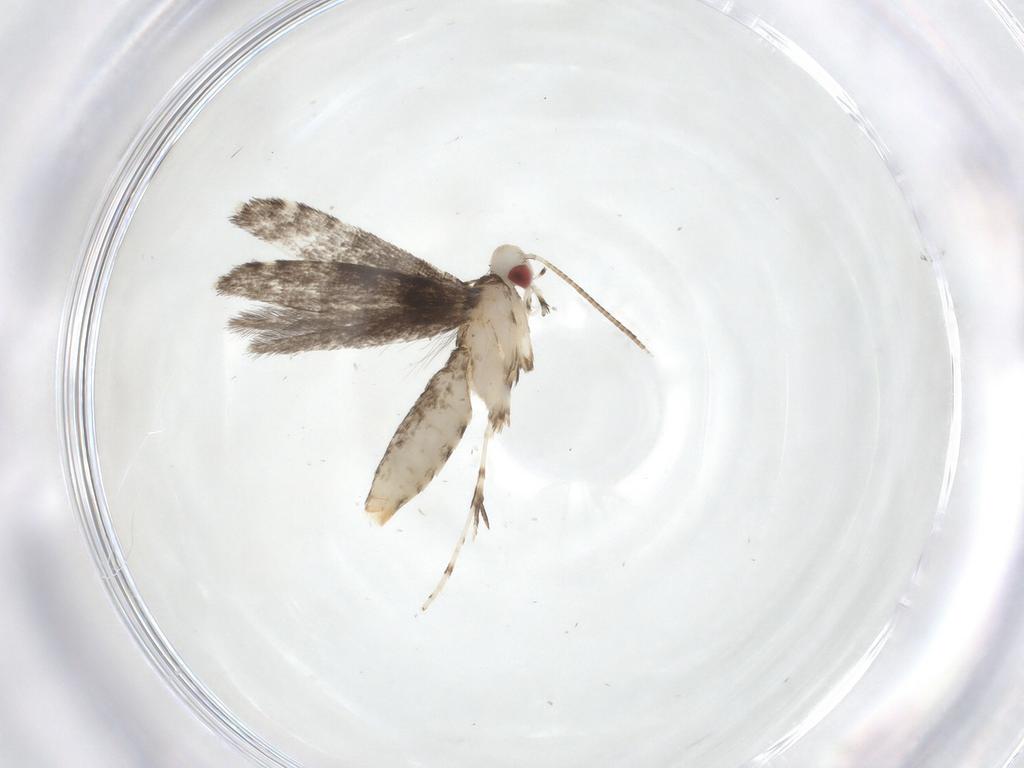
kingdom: Animalia
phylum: Arthropoda
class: Insecta
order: Lepidoptera
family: Gracillariidae
